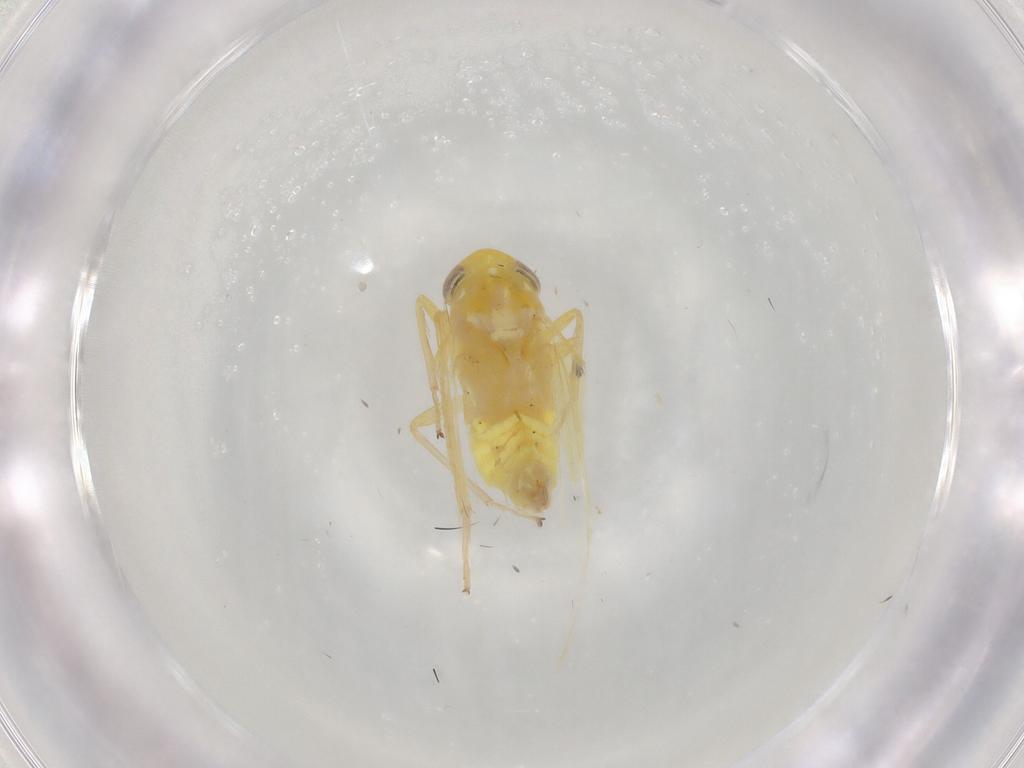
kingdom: Animalia
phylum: Arthropoda
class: Insecta
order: Hemiptera
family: Cicadellidae
